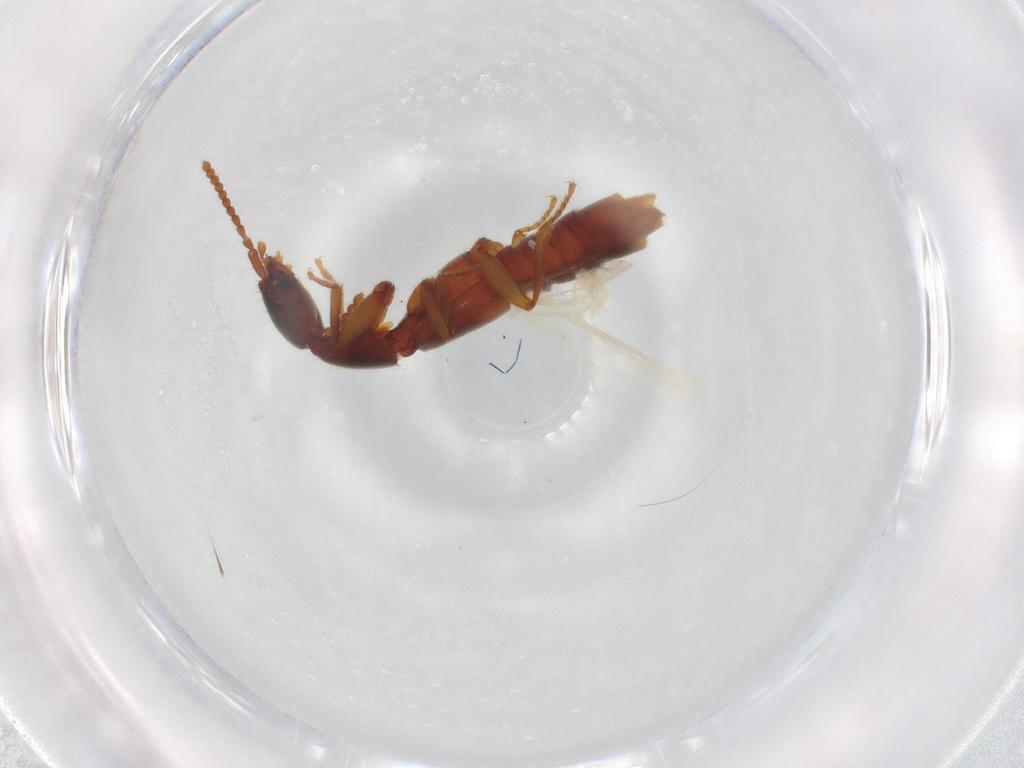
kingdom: Animalia
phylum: Arthropoda
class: Insecta
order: Coleoptera
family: Staphylinidae
